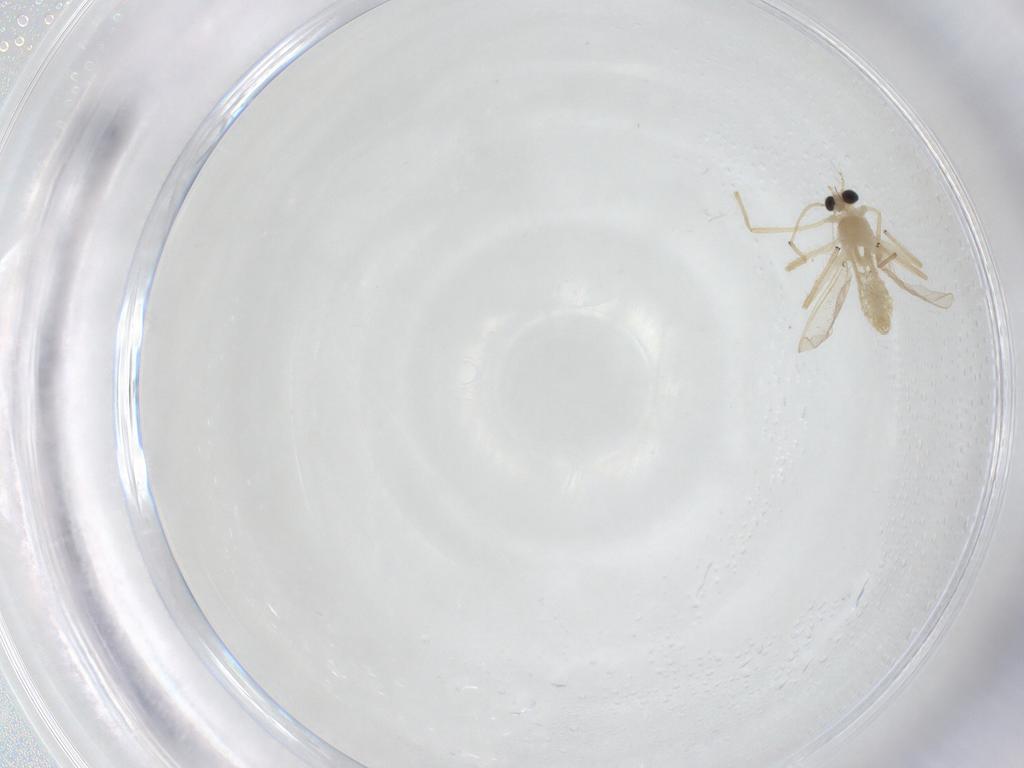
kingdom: Animalia
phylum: Arthropoda
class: Insecta
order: Diptera
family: Chironomidae
